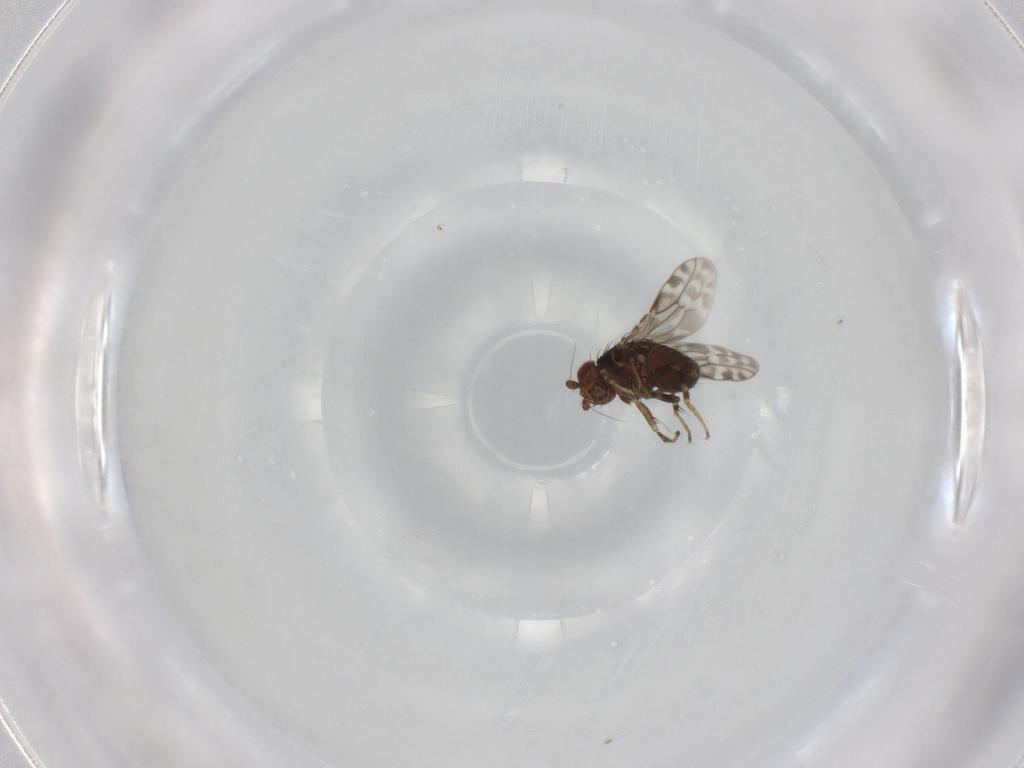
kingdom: Animalia
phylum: Arthropoda
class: Insecta
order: Diptera
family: Sphaeroceridae
